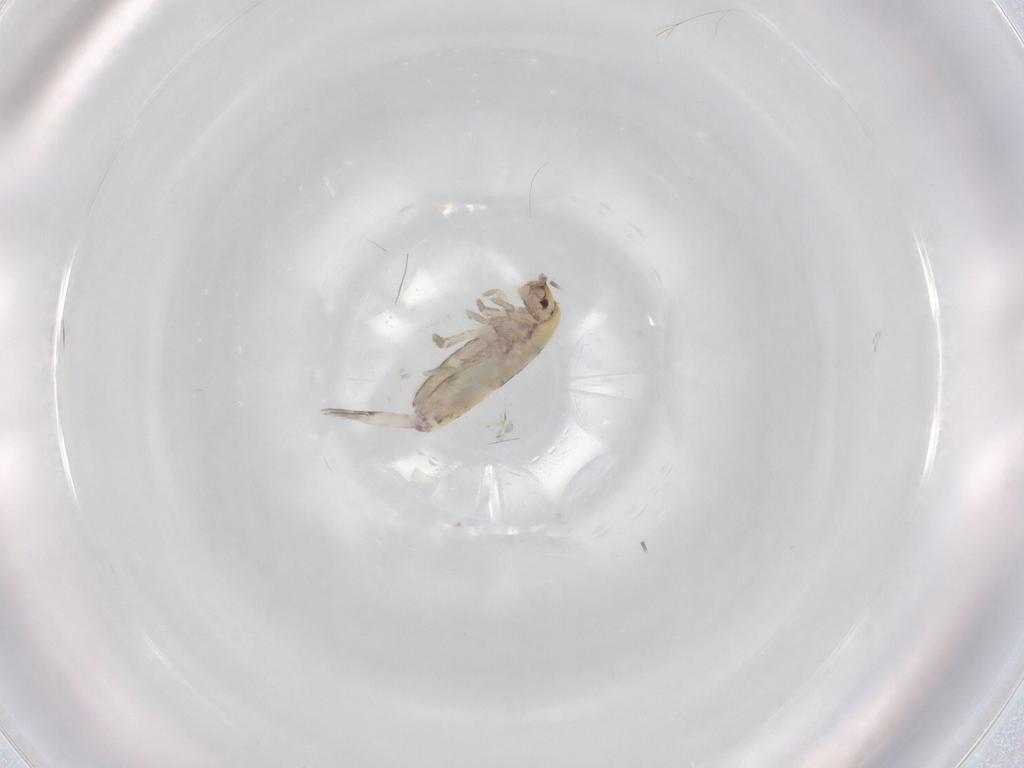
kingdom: Animalia
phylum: Arthropoda
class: Collembola
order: Entomobryomorpha
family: Entomobryidae
